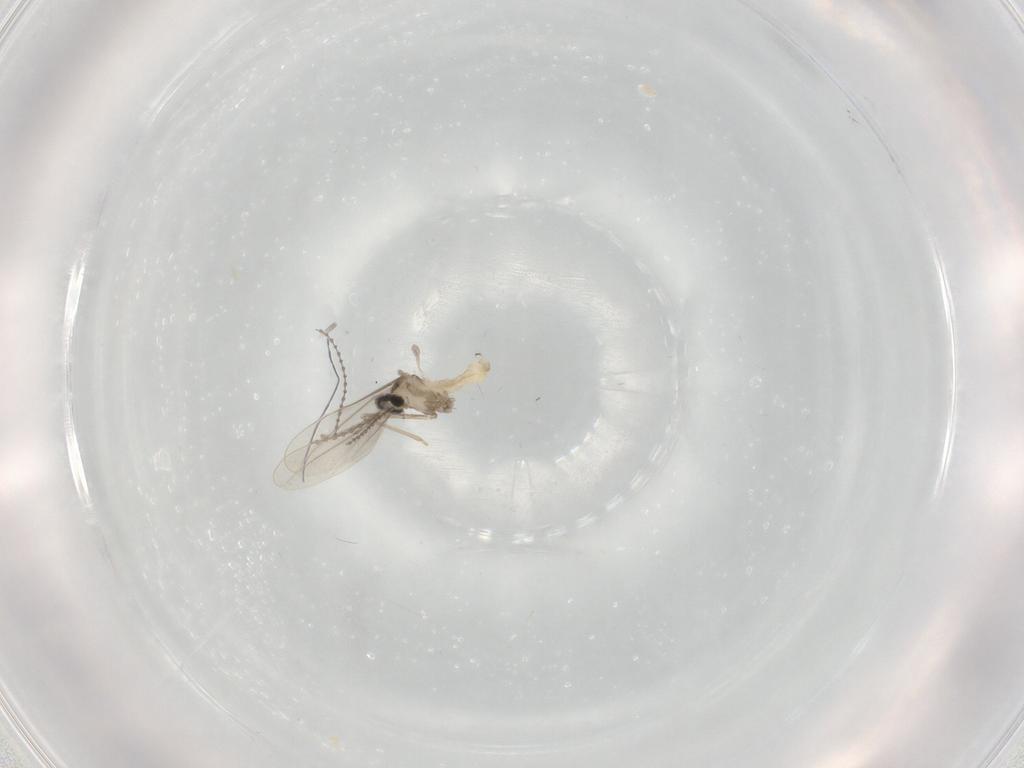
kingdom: Animalia
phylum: Arthropoda
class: Insecta
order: Diptera
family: Cecidomyiidae
